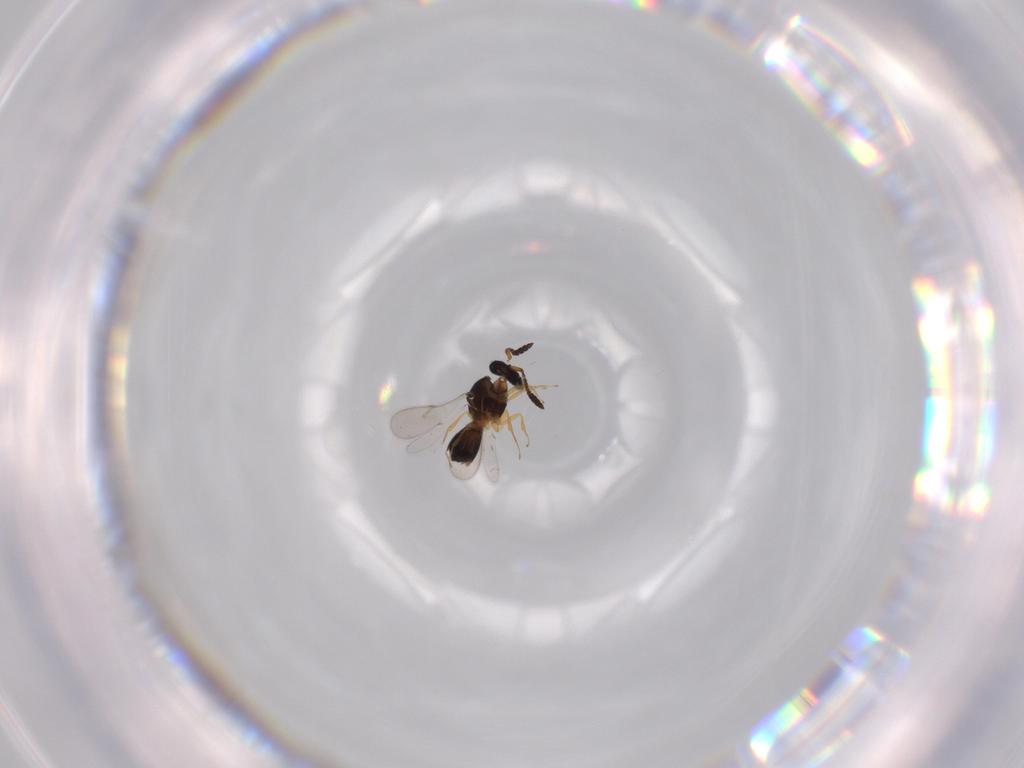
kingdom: Animalia
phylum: Arthropoda
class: Insecta
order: Hymenoptera
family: Scelionidae
